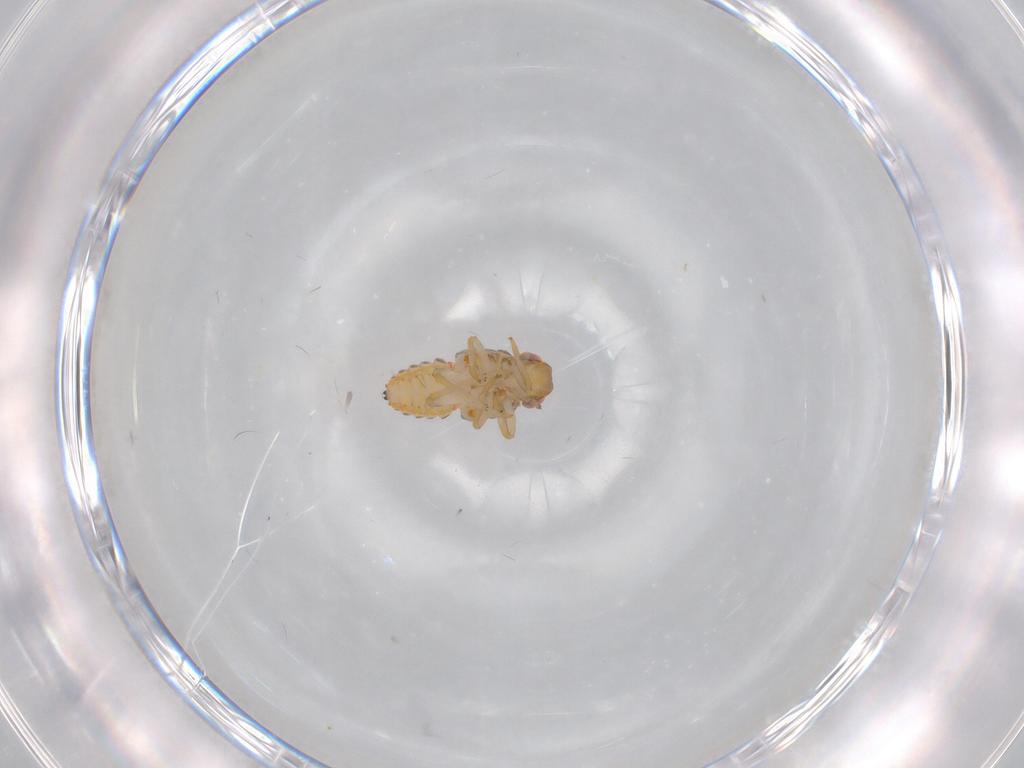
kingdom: Animalia
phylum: Arthropoda
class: Insecta
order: Hemiptera
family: Issidae
